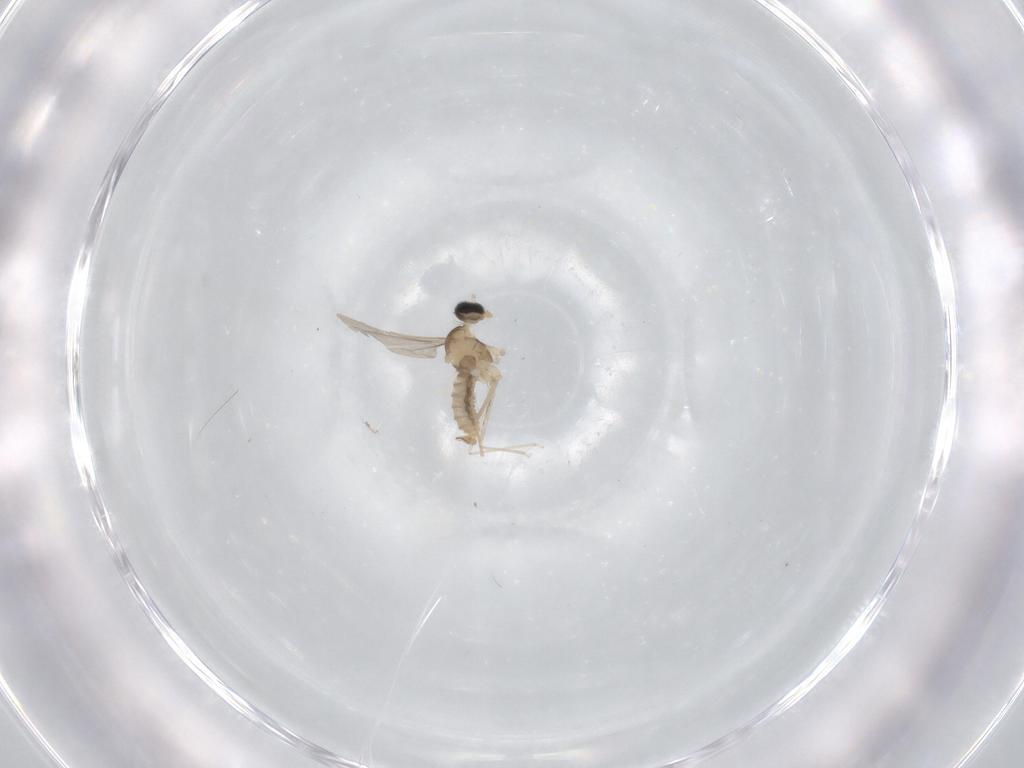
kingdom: Animalia
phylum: Arthropoda
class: Insecta
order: Diptera
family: Cecidomyiidae
